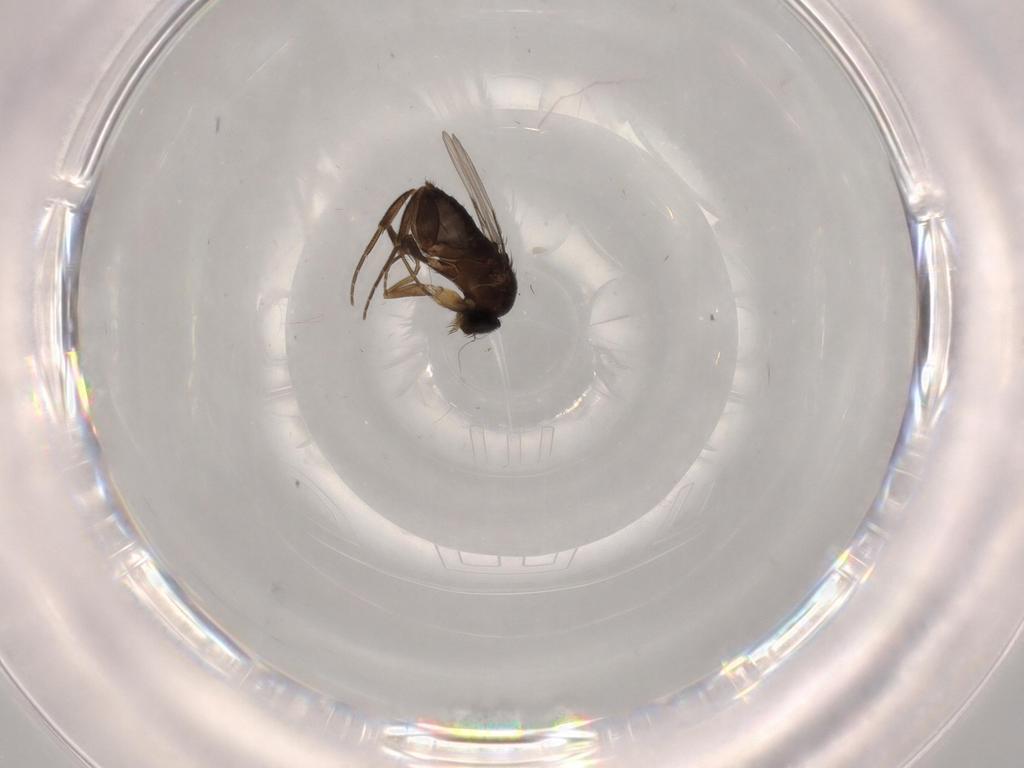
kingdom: Animalia
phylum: Arthropoda
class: Insecta
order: Diptera
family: Phoridae
